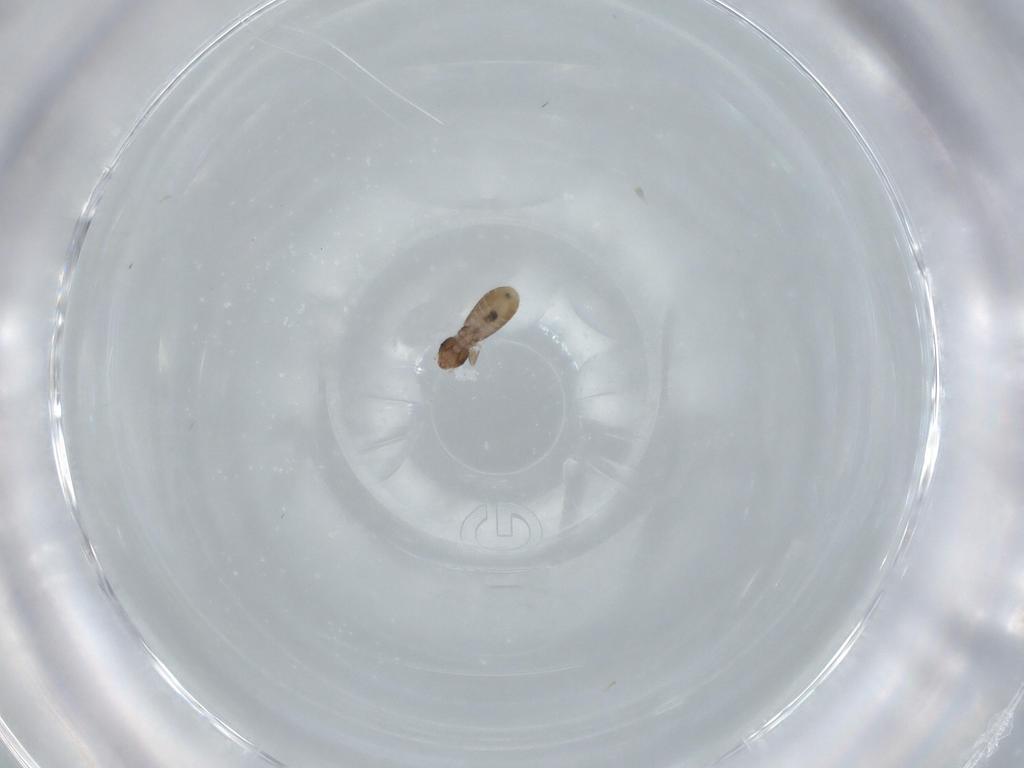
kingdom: Animalia
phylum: Arthropoda
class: Insecta
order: Psocodea
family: Liposcelididae
